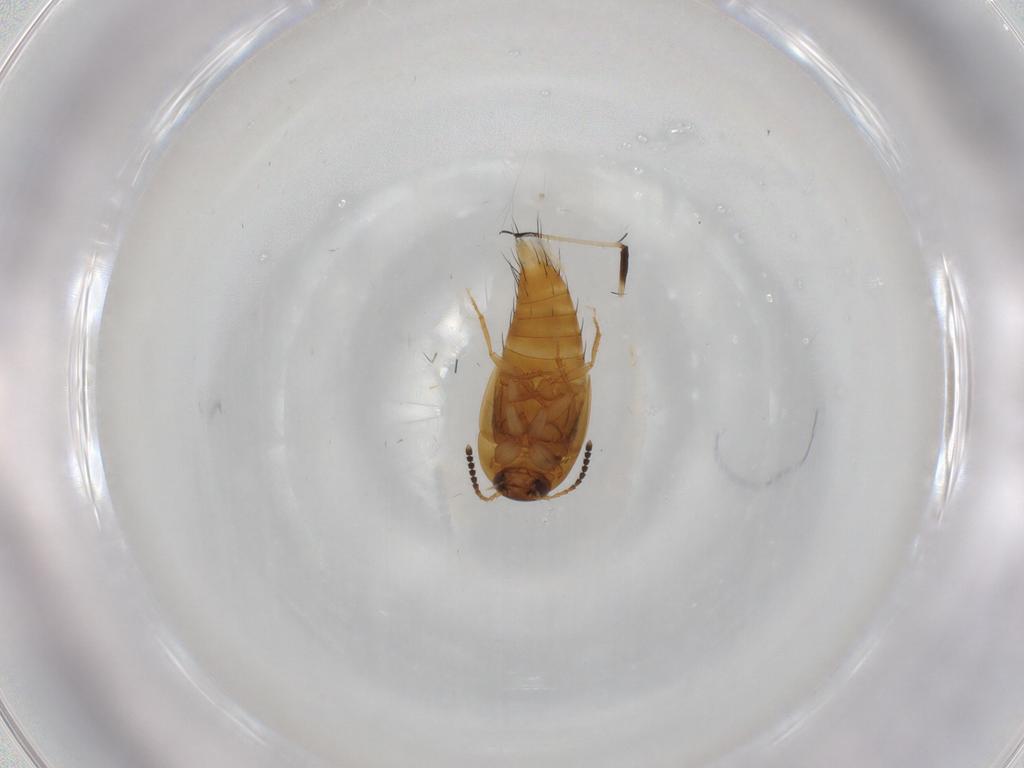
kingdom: Animalia
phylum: Arthropoda
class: Insecta
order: Coleoptera
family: Staphylinidae
